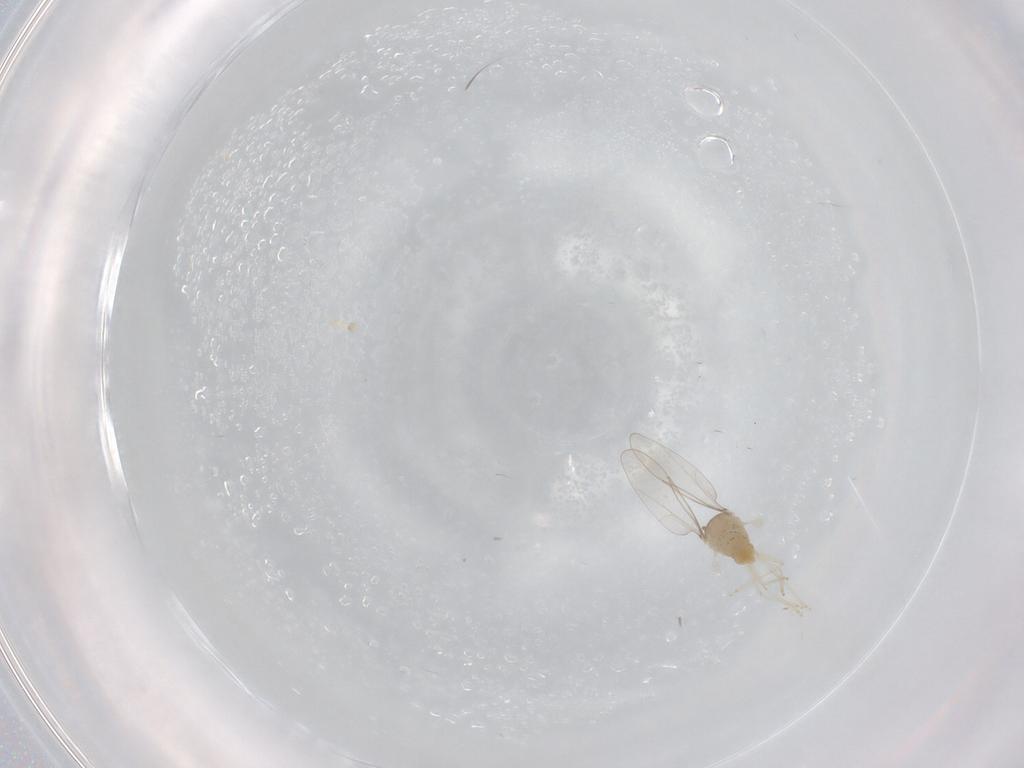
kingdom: Animalia
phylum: Arthropoda
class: Insecta
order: Diptera
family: Cecidomyiidae
